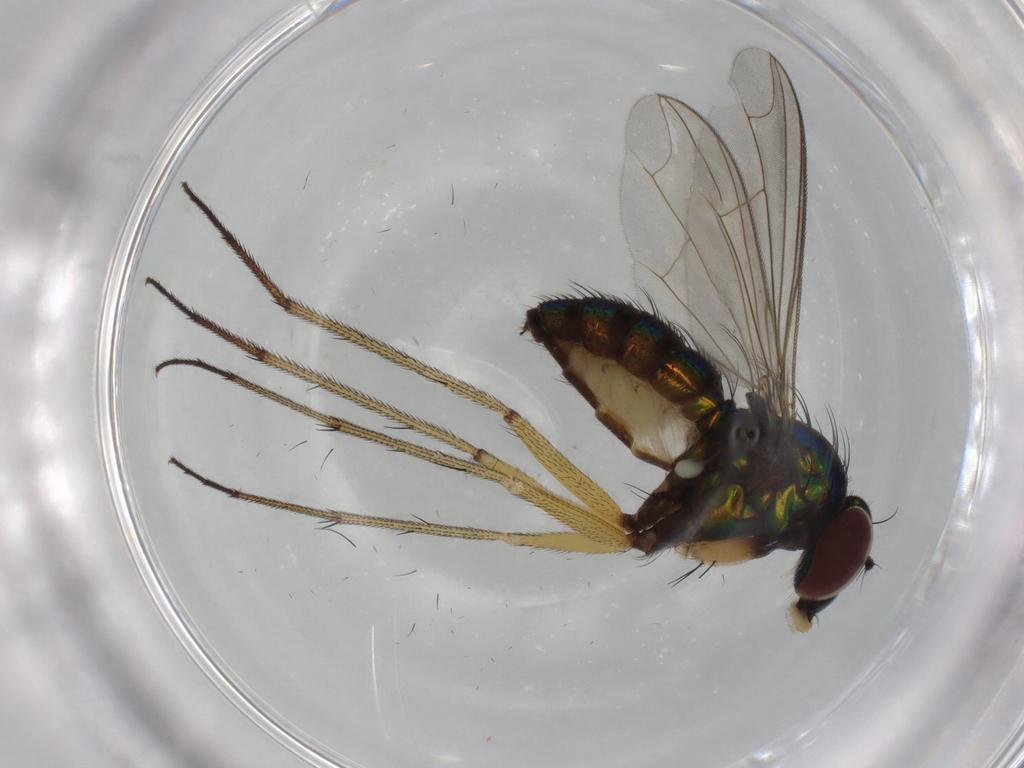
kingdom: Animalia
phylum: Arthropoda
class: Insecta
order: Diptera
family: Dolichopodidae
